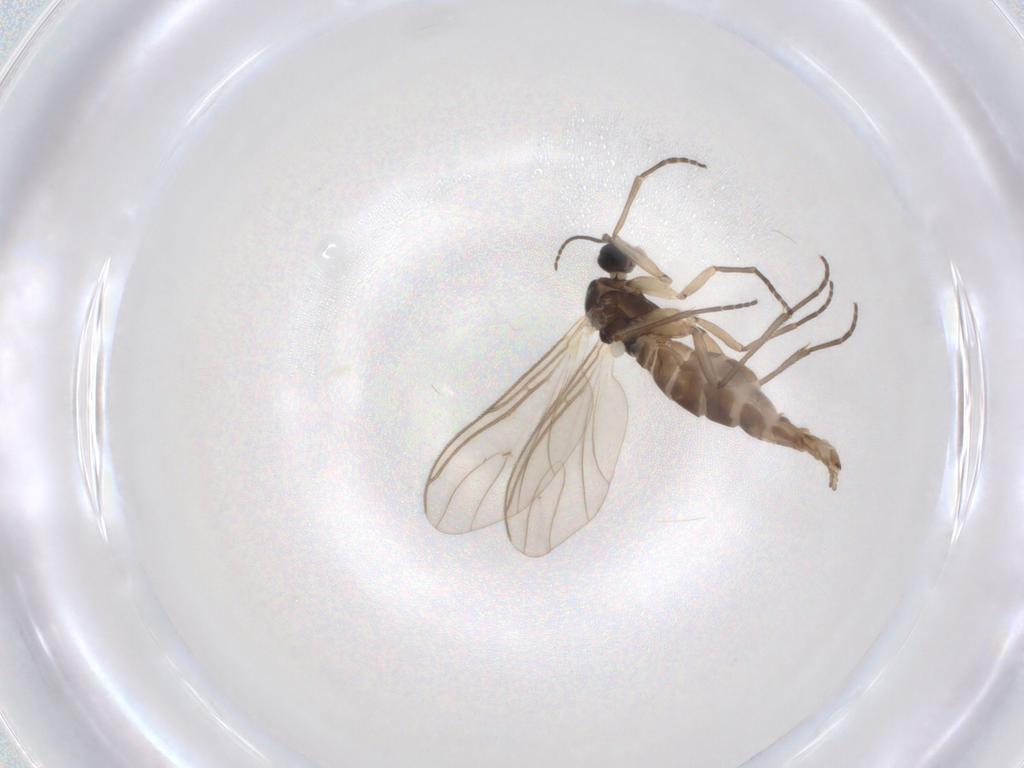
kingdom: Animalia
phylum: Arthropoda
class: Insecta
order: Diptera
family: Sciaridae
